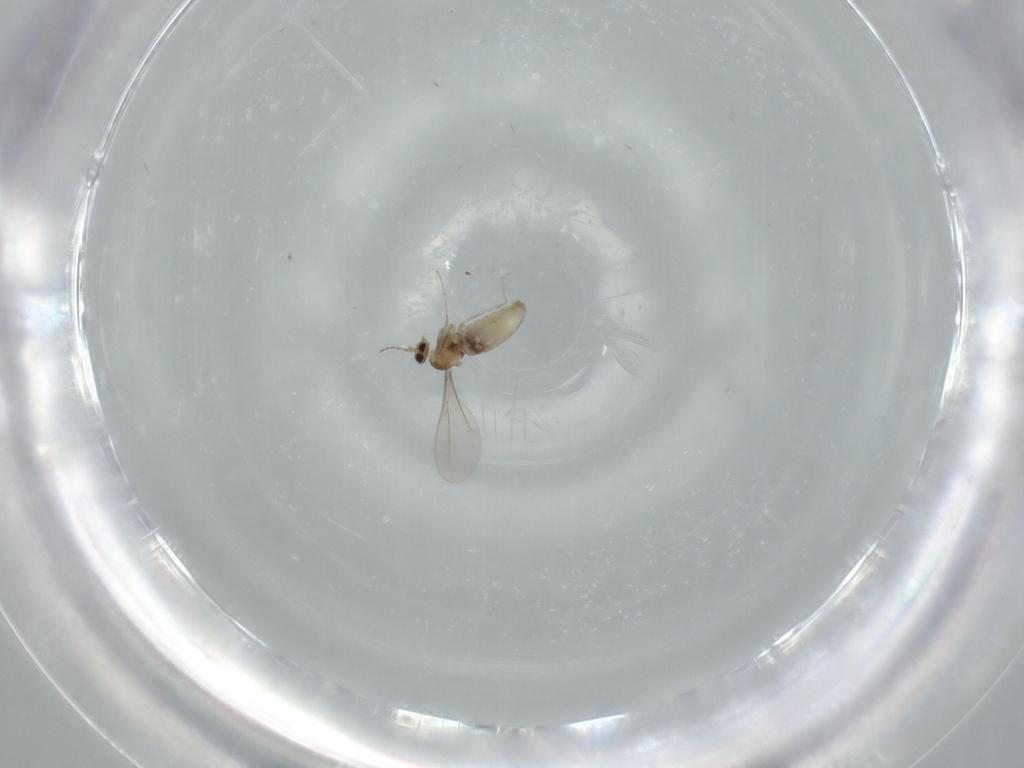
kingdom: Animalia
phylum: Arthropoda
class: Insecta
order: Diptera
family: Cecidomyiidae
